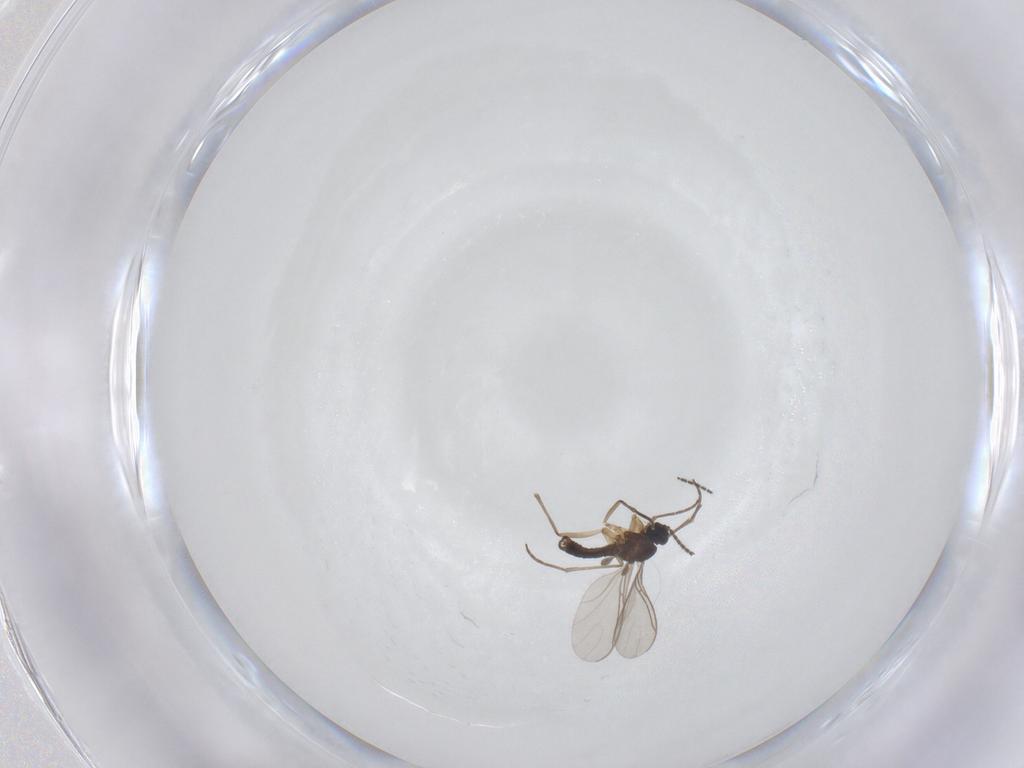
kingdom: Animalia
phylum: Arthropoda
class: Insecta
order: Diptera
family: Sciaridae
